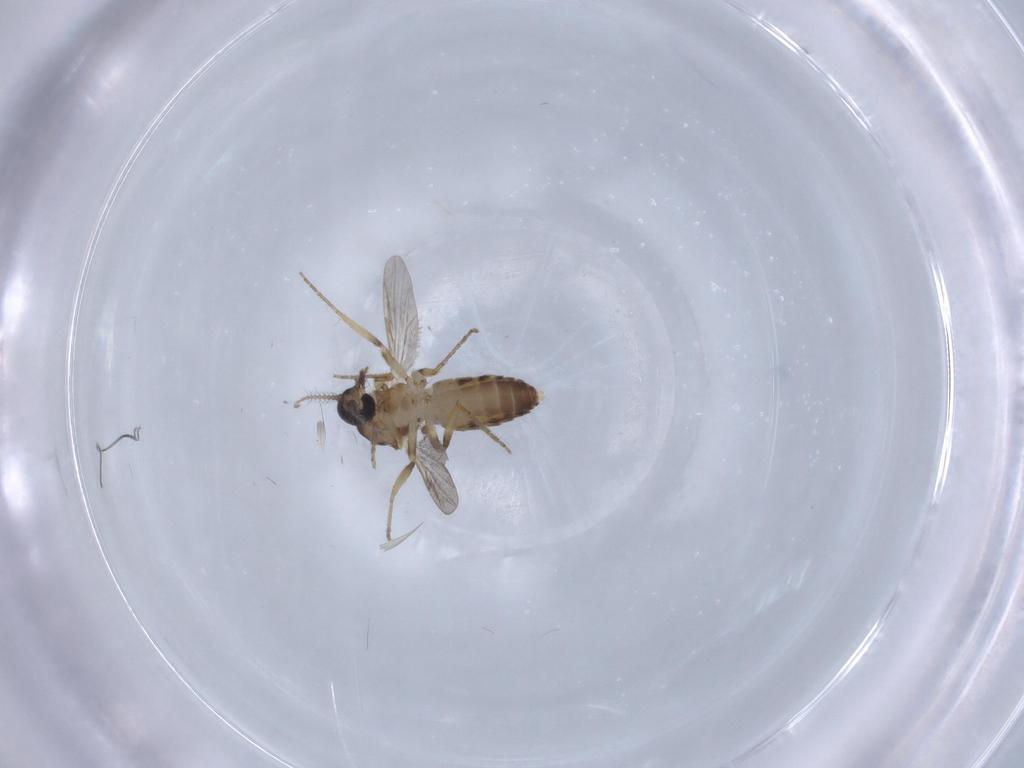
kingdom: Animalia
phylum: Arthropoda
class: Insecta
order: Diptera
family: Ceratopogonidae
